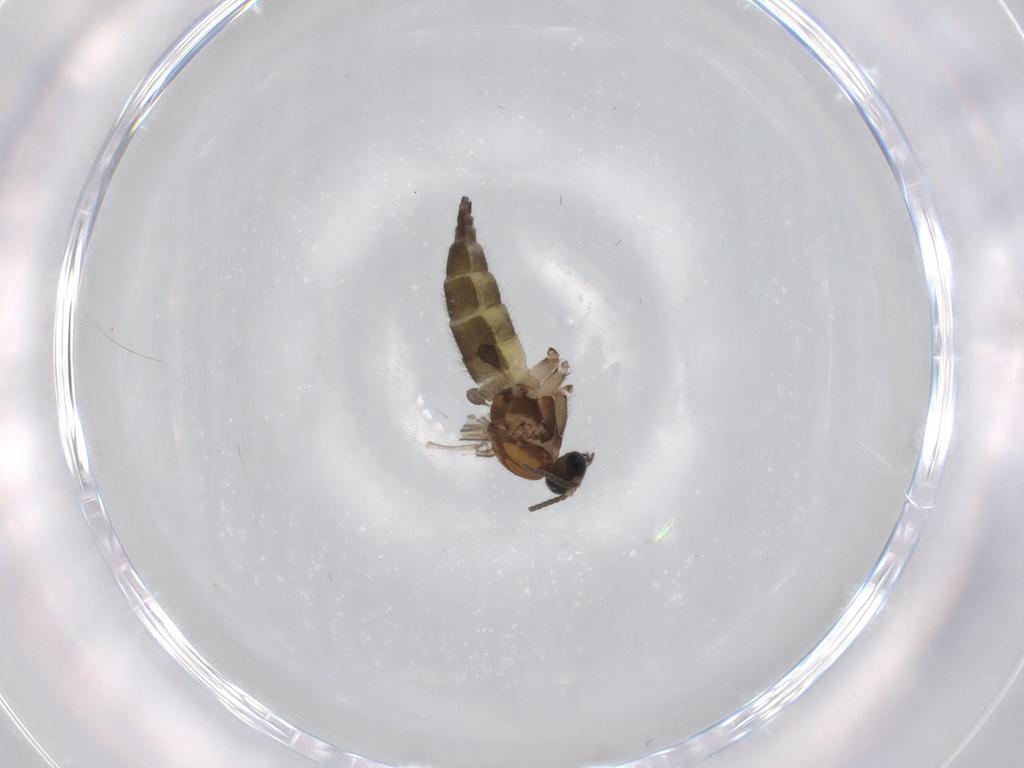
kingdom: Animalia
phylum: Arthropoda
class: Insecta
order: Diptera
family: Sciaridae
